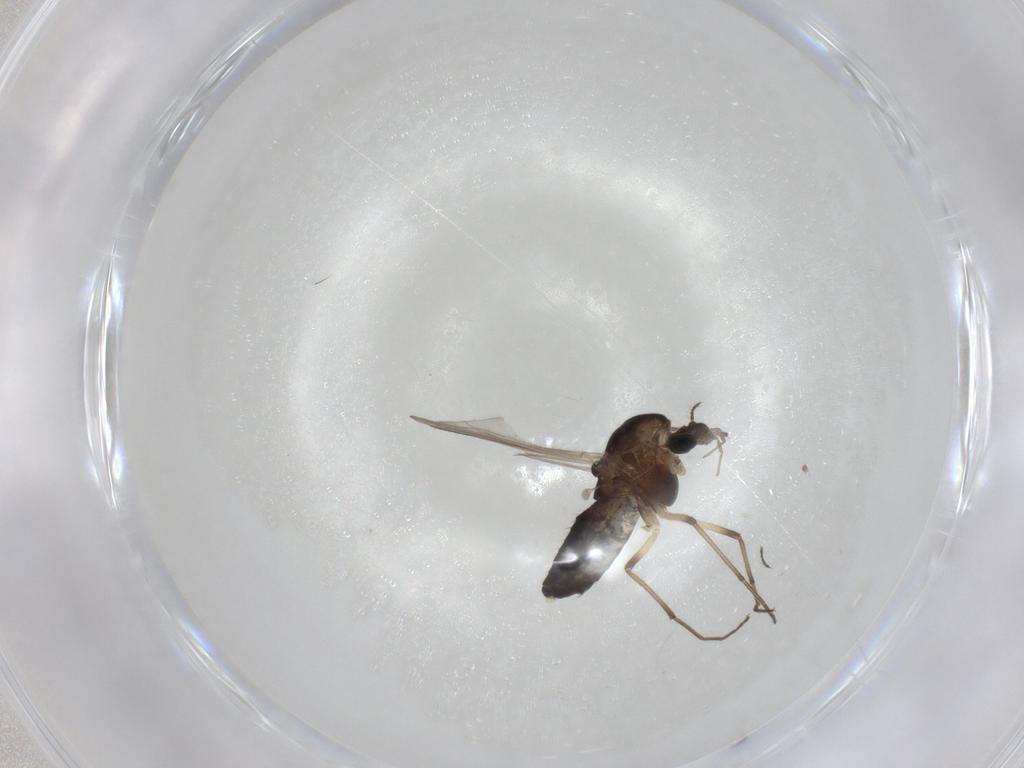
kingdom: Animalia
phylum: Arthropoda
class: Insecta
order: Diptera
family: Chironomidae
